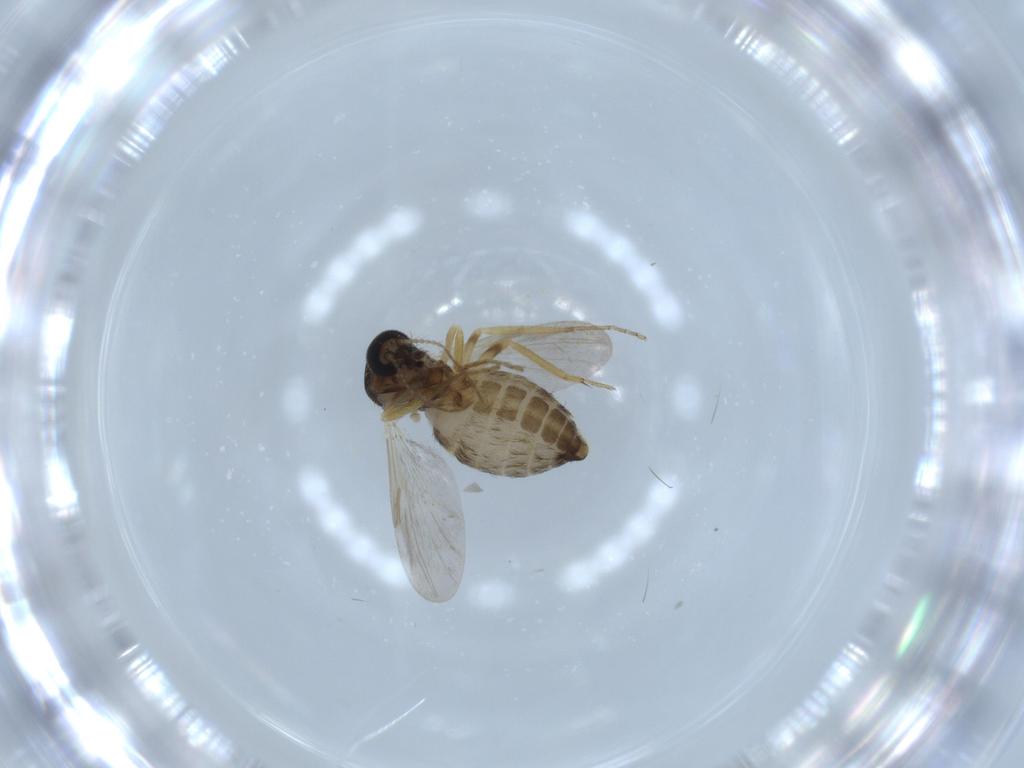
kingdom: Animalia
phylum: Arthropoda
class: Insecta
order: Diptera
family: Ceratopogonidae
